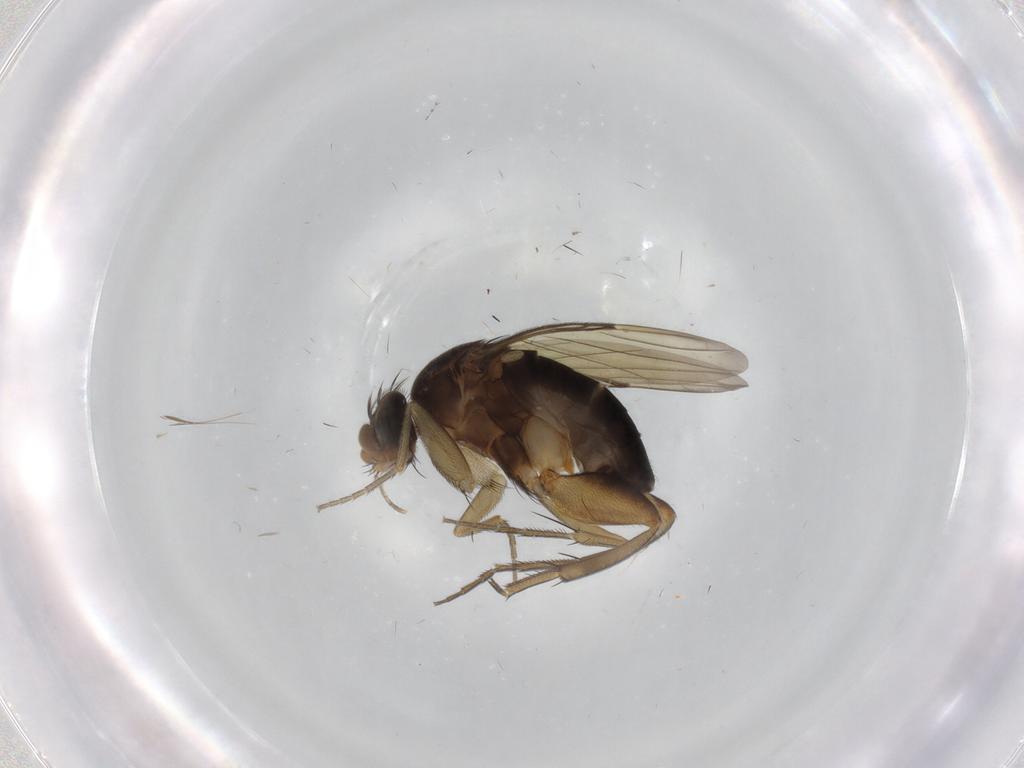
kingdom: Animalia
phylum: Arthropoda
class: Insecta
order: Diptera
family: Phoridae
